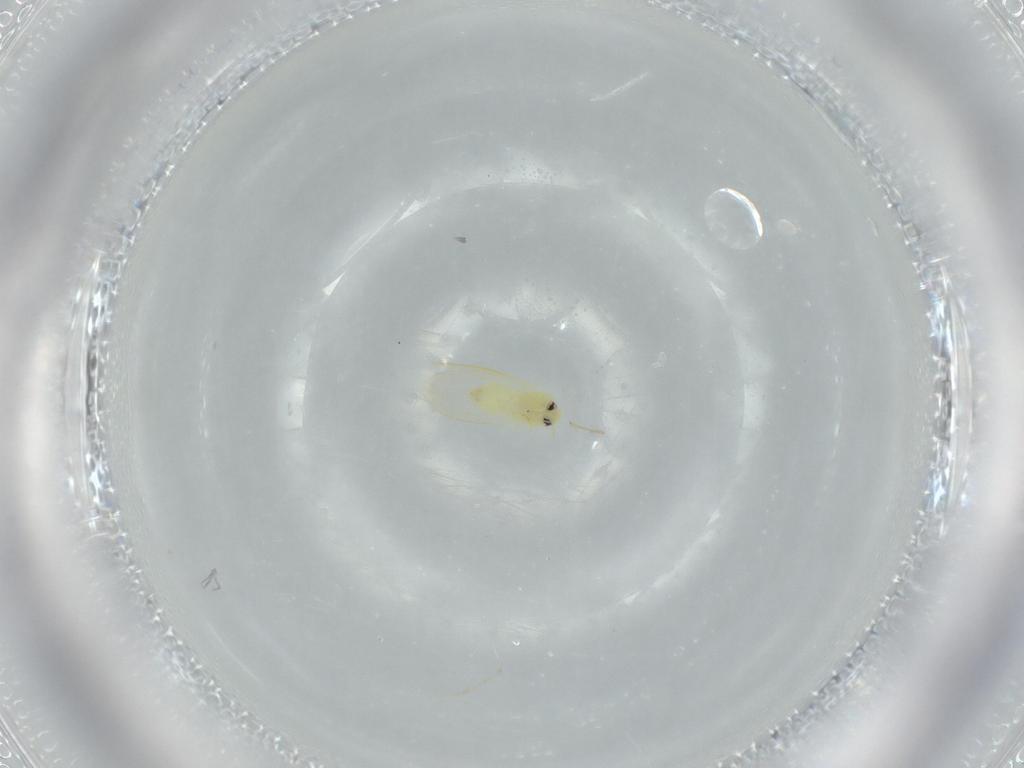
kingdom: Animalia
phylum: Arthropoda
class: Insecta
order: Hemiptera
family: Aleyrodidae
